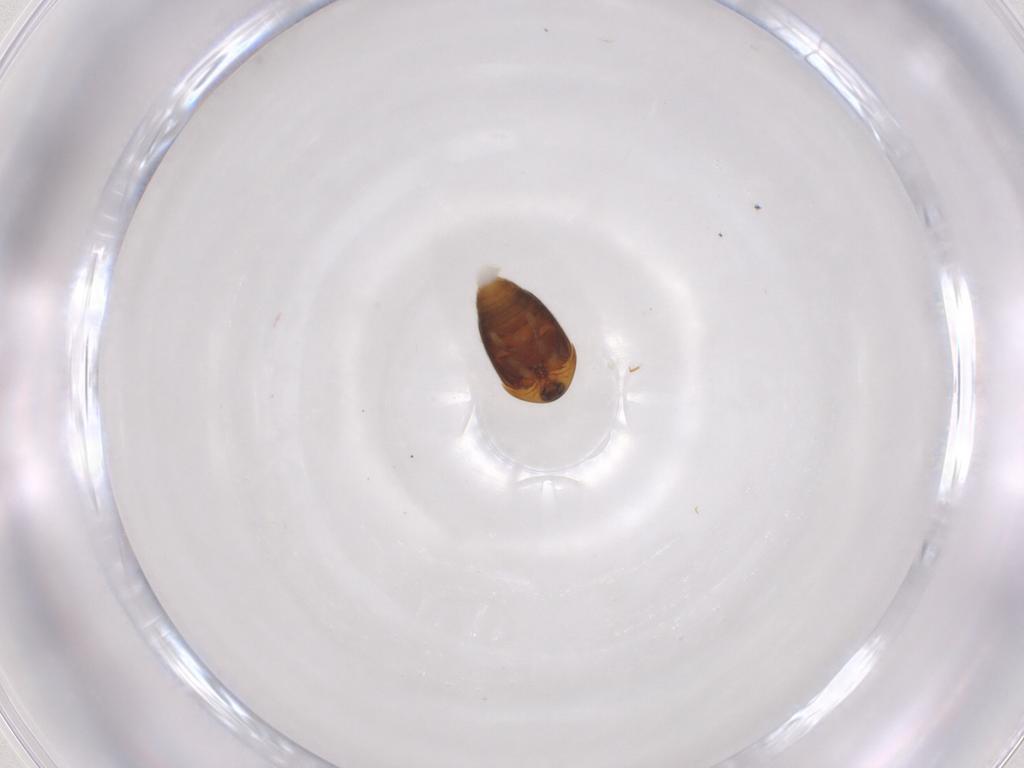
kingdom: Animalia
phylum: Arthropoda
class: Insecta
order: Coleoptera
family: Corylophidae
